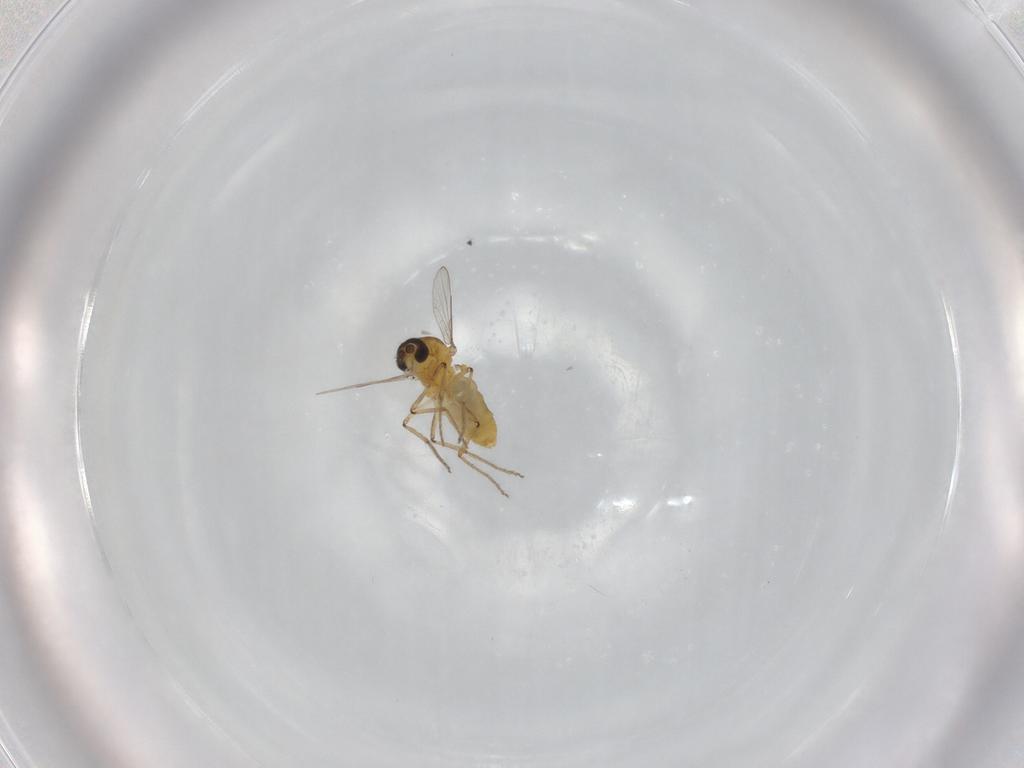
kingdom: Animalia
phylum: Arthropoda
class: Insecta
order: Diptera
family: Ceratopogonidae
